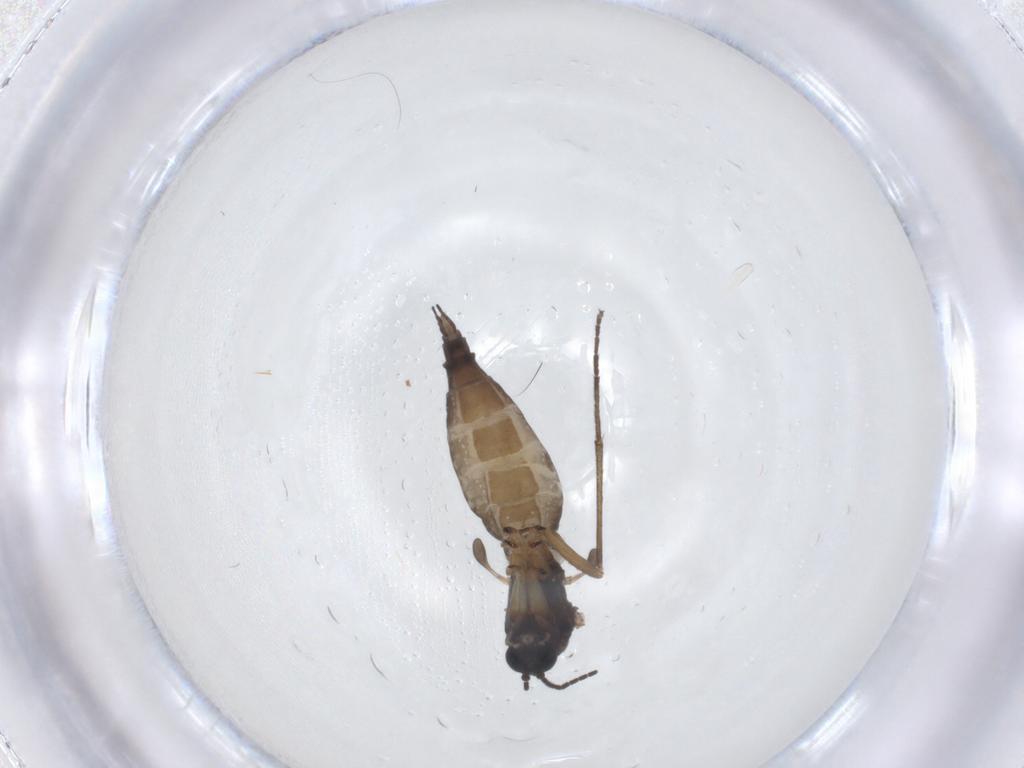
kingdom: Animalia
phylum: Arthropoda
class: Insecta
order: Diptera
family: Sciaridae
